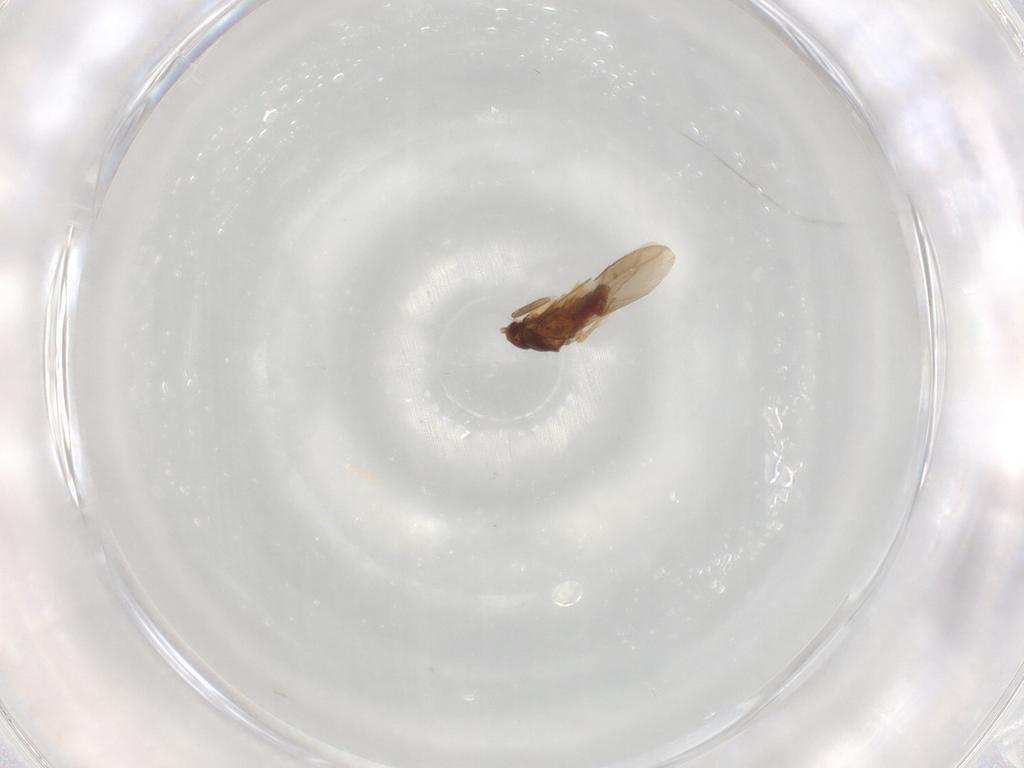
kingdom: Animalia
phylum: Arthropoda
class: Insecta
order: Hemiptera
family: Ceratocombidae
